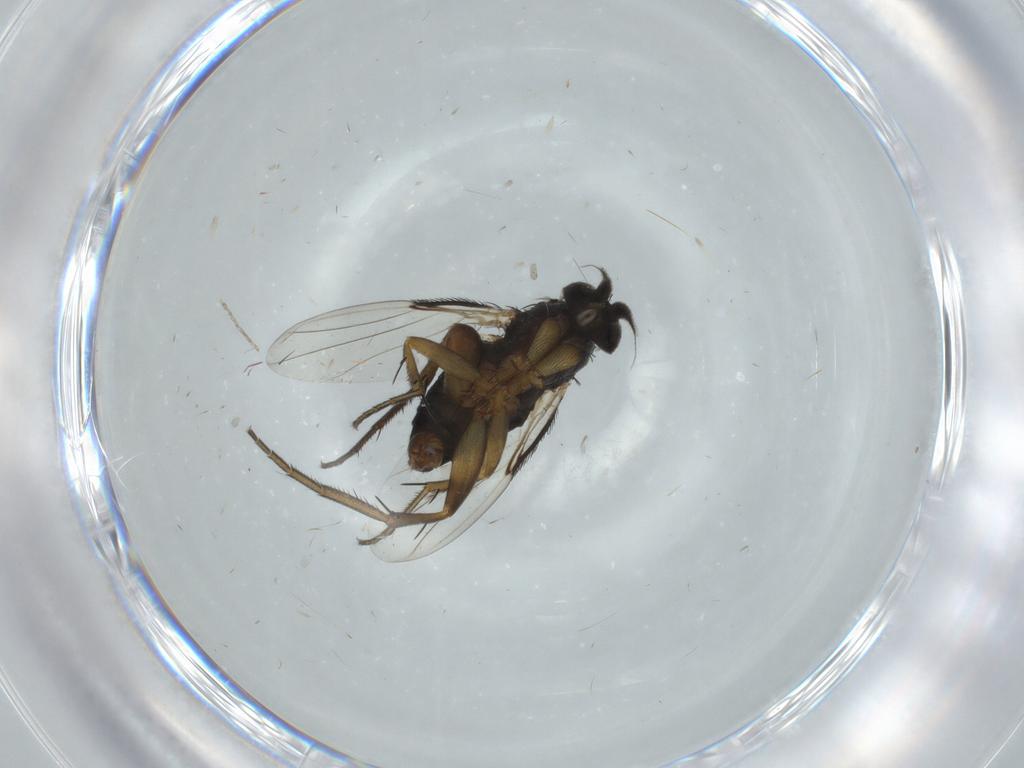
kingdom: Animalia
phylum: Arthropoda
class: Insecta
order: Diptera
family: Phoridae
